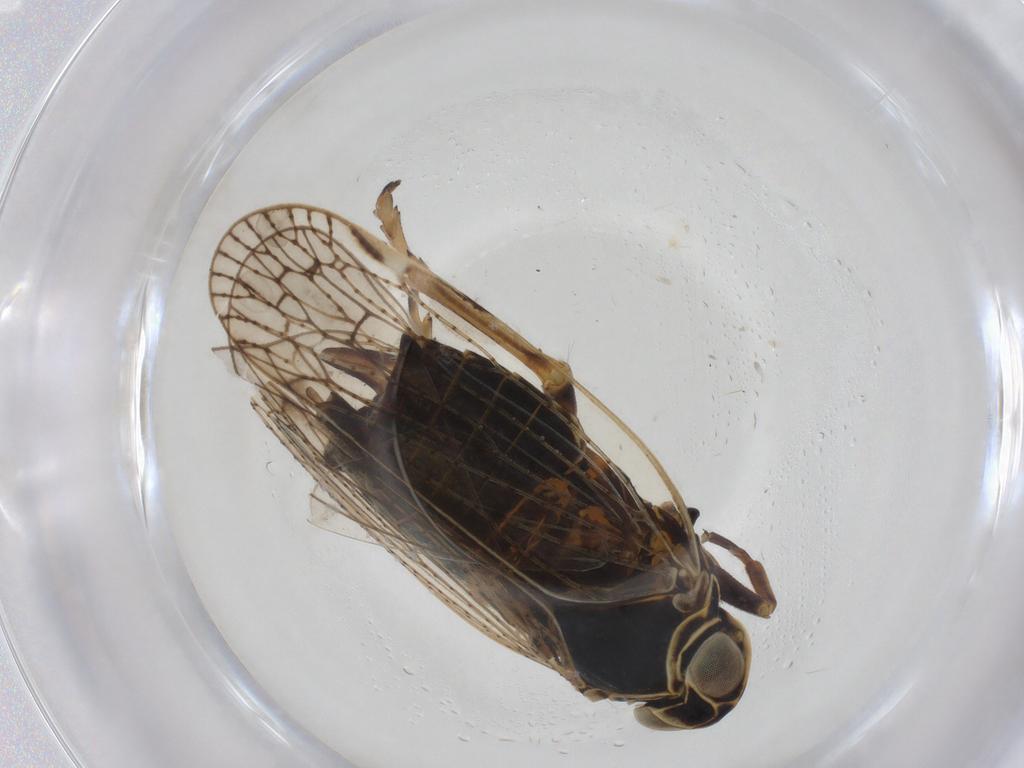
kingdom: Animalia
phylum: Arthropoda
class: Insecta
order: Hemiptera
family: Cixiidae
